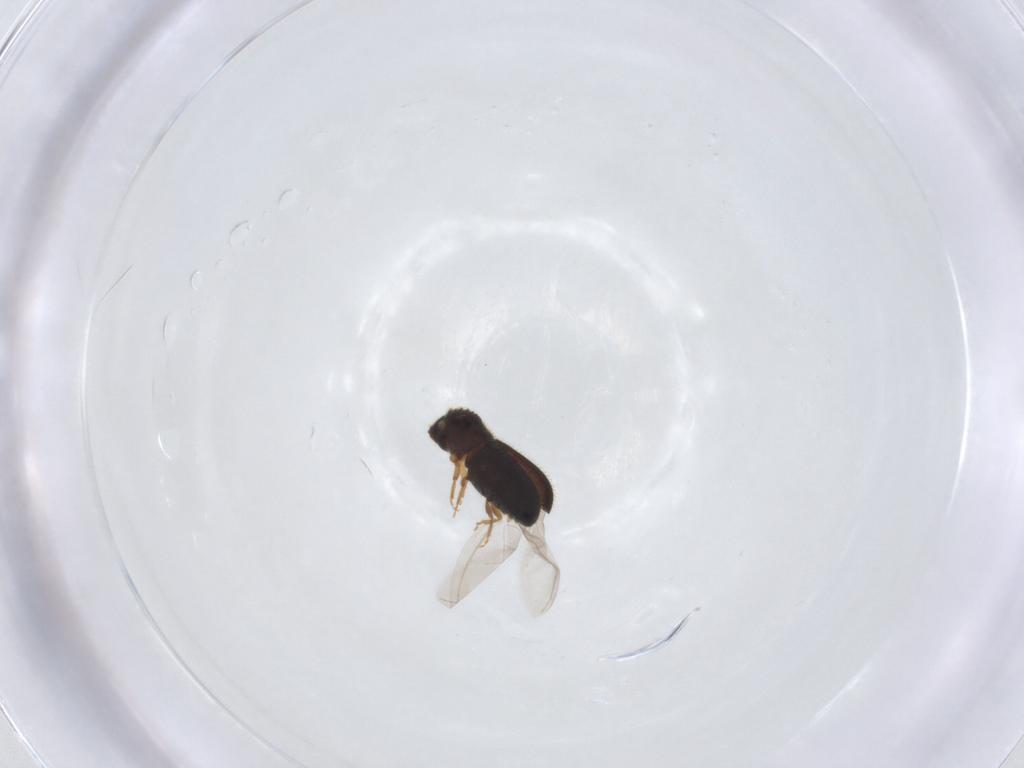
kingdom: Animalia
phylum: Arthropoda
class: Insecta
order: Coleoptera
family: Curculionidae
